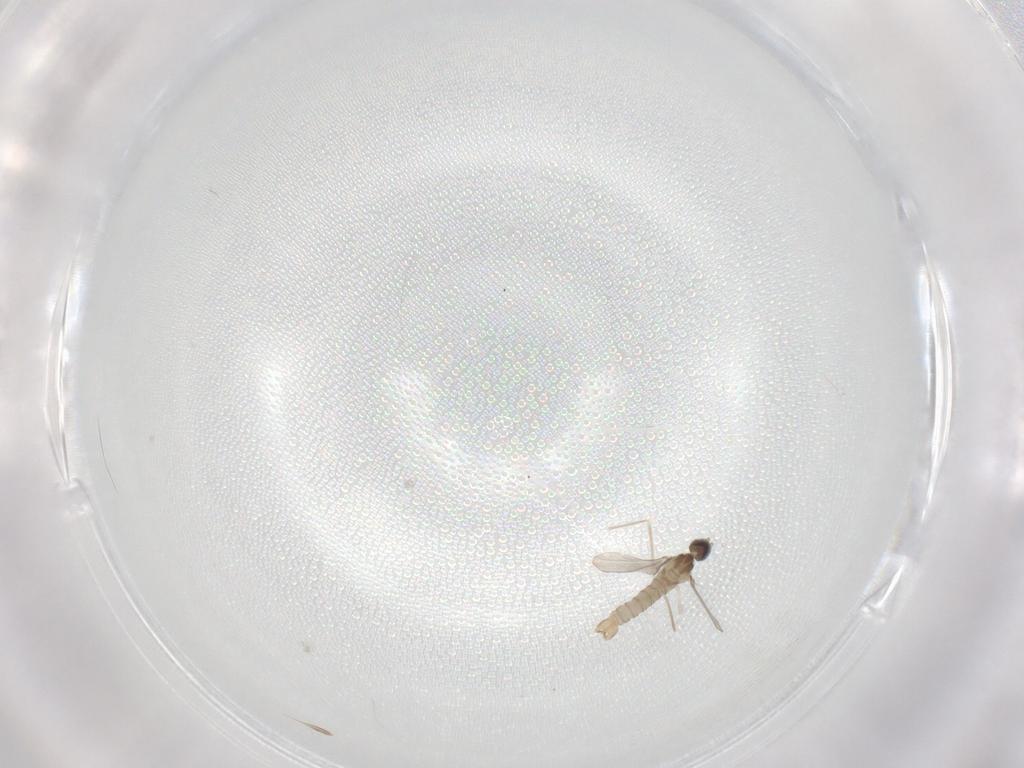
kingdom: Animalia
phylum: Arthropoda
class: Insecta
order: Diptera
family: Cecidomyiidae
